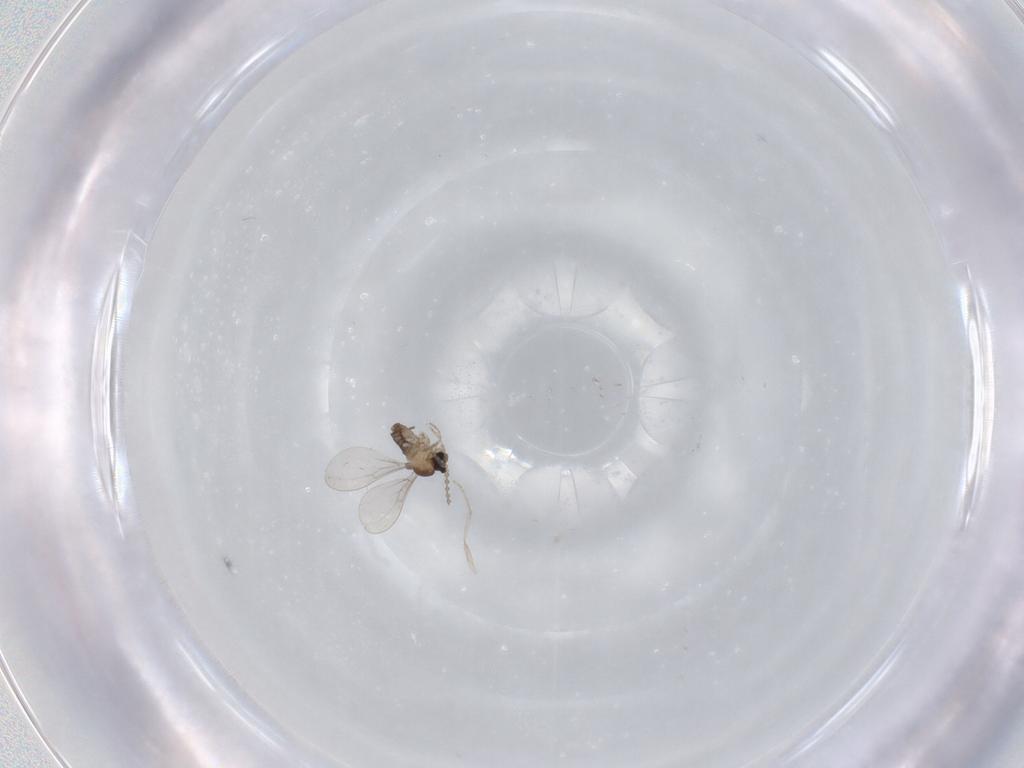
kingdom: Animalia
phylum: Arthropoda
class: Insecta
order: Diptera
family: Cecidomyiidae
